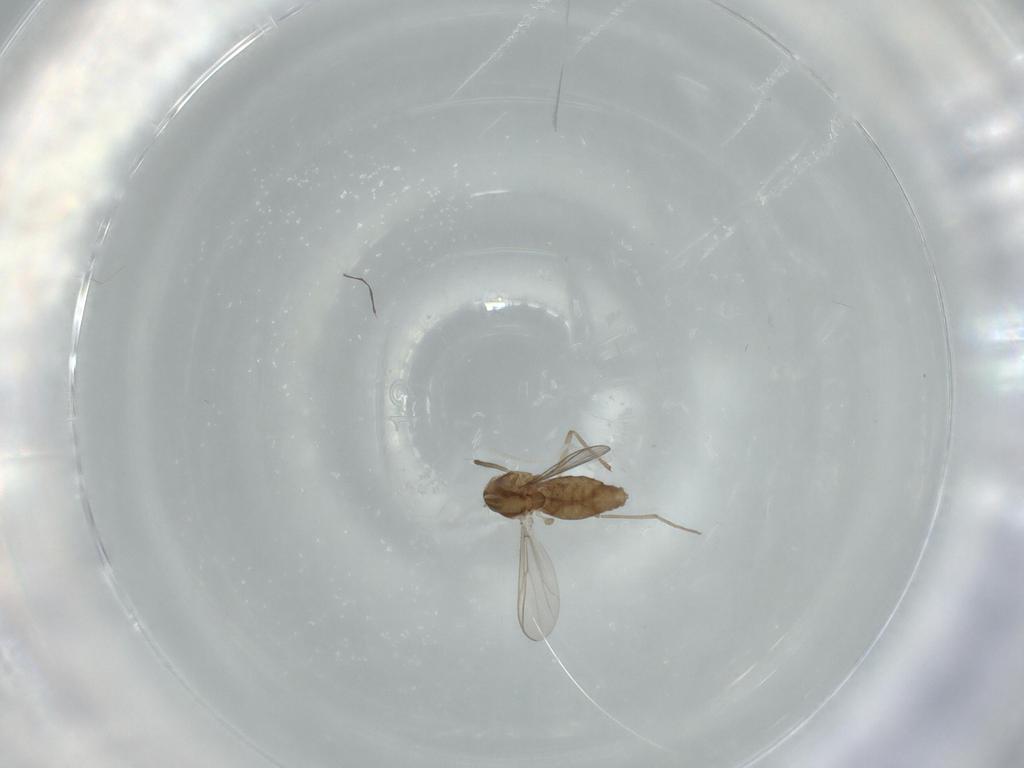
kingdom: Animalia
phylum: Arthropoda
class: Insecta
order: Diptera
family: Chironomidae
